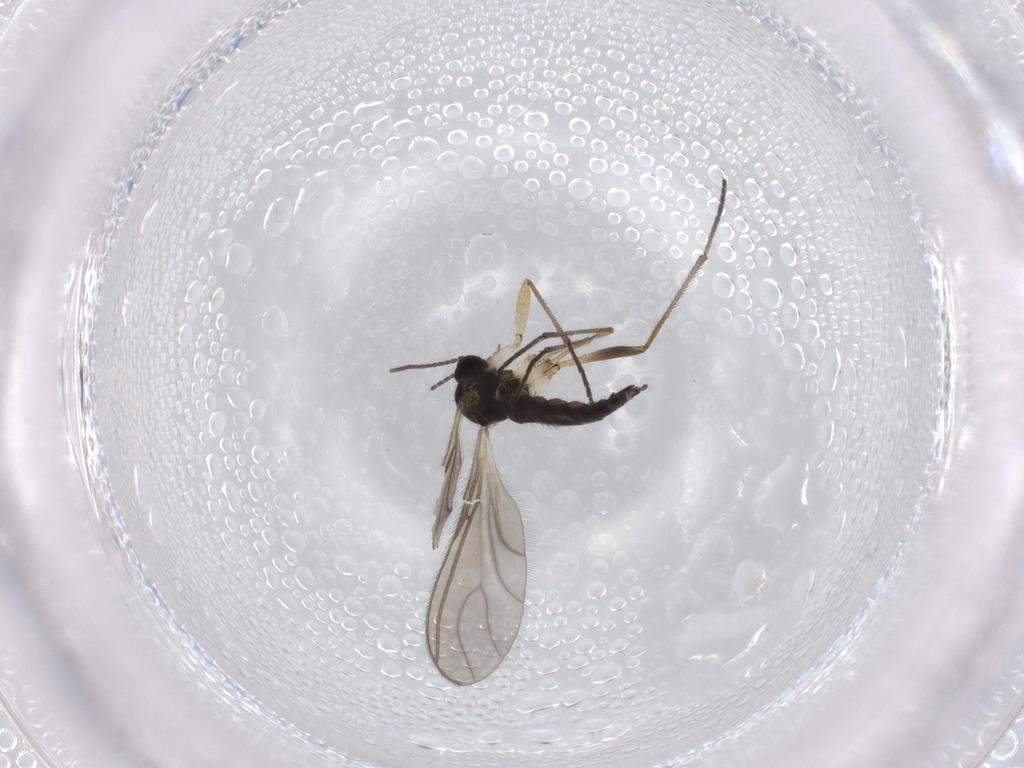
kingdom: Animalia
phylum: Arthropoda
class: Insecta
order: Diptera
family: Sciaridae
